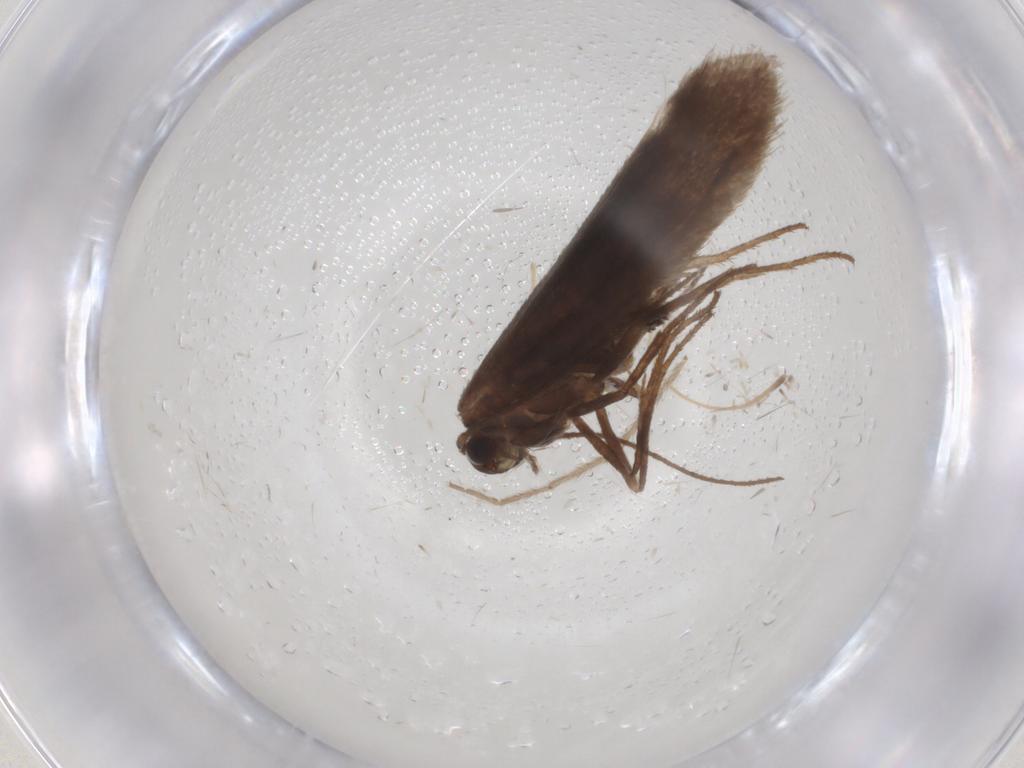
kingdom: Animalia
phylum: Arthropoda
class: Insecta
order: Lepidoptera
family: Limacodidae
